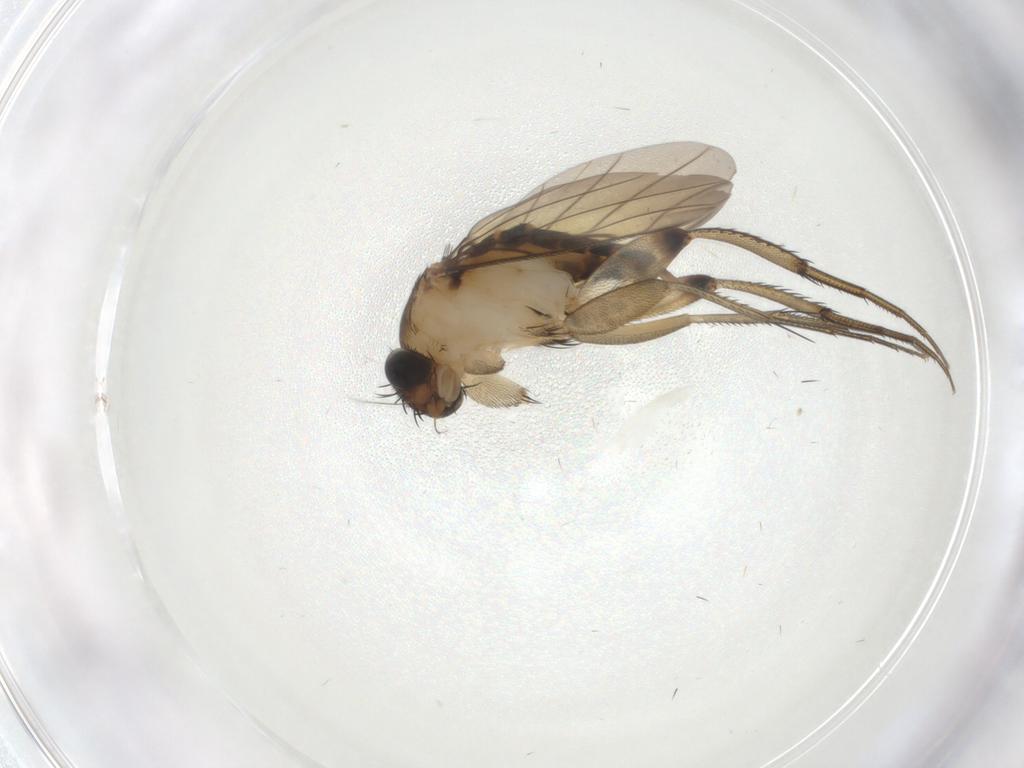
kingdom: Animalia
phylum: Arthropoda
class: Insecta
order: Diptera
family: Phoridae
